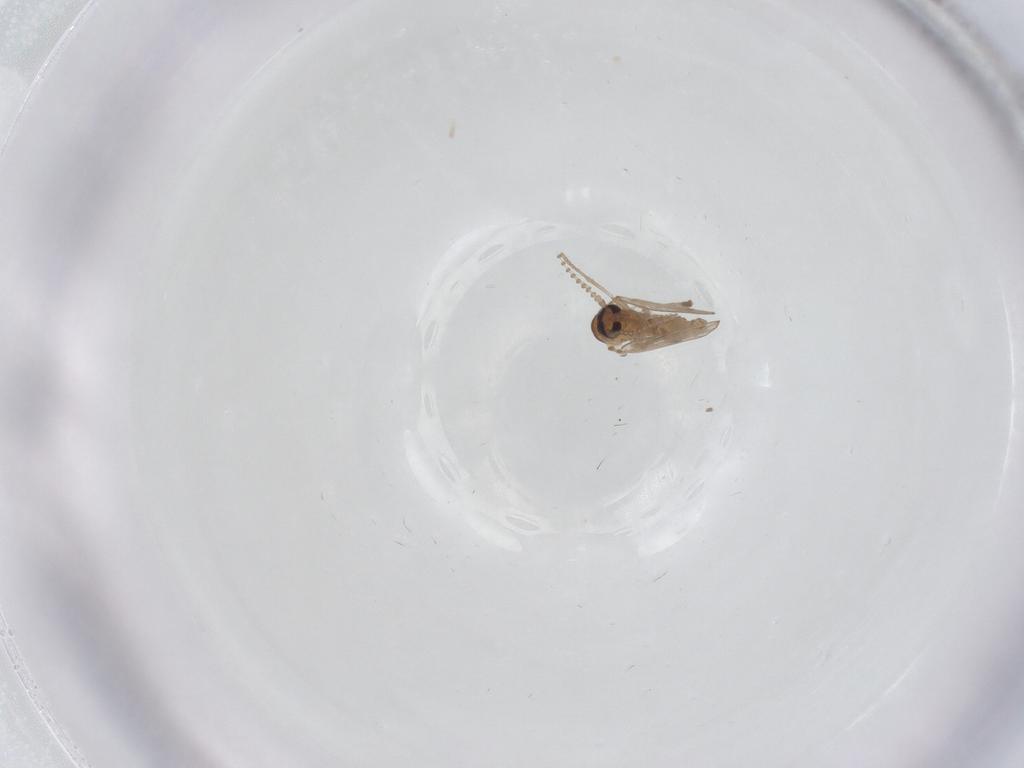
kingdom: Animalia
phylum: Arthropoda
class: Insecta
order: Diptera
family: Psychodidae
